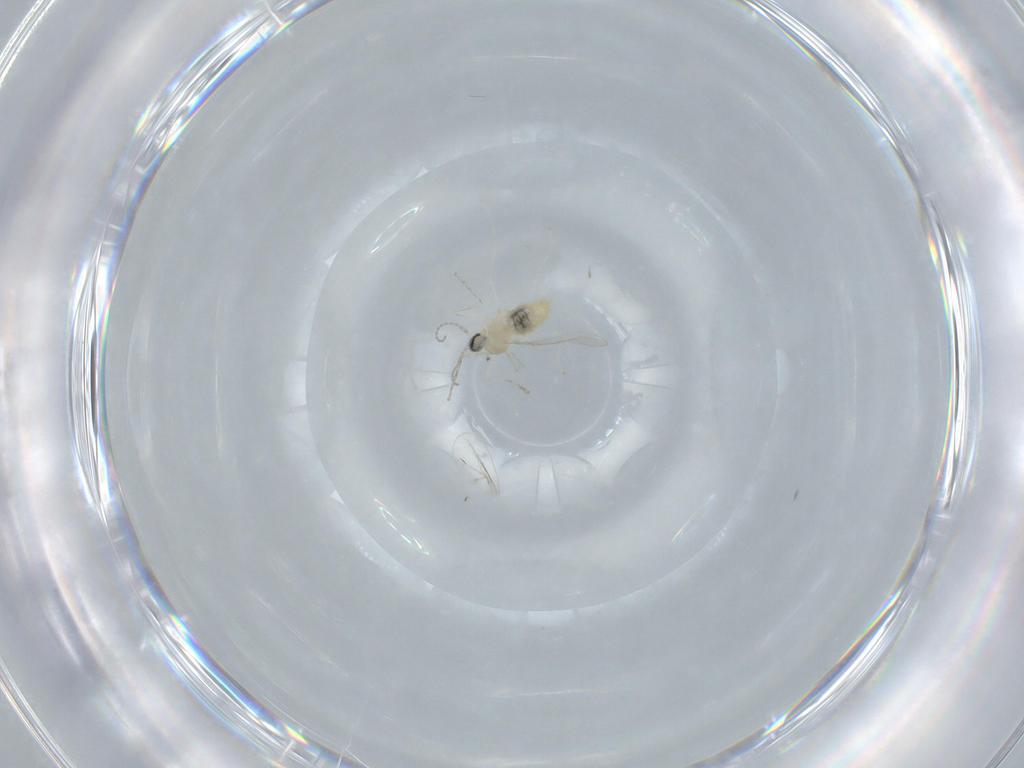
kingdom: Animalia
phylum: Arthropoda
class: Insecta
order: Diptera
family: Cecidomyiidae
